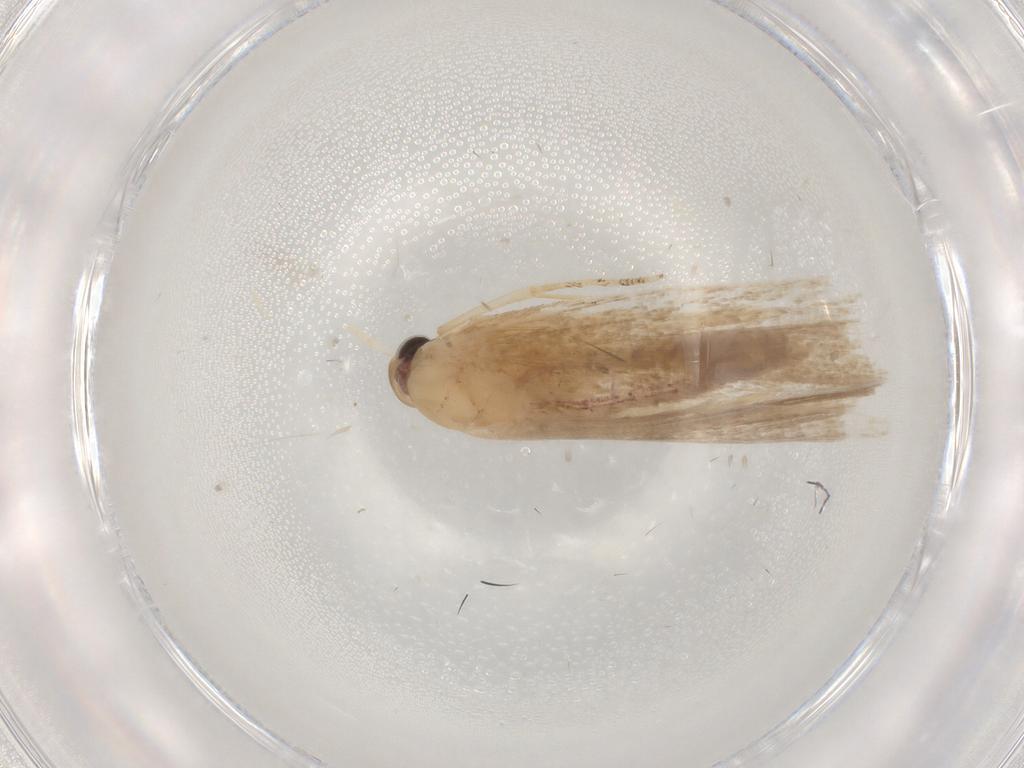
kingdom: Animalia
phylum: Arthropoda
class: Insecta
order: Lepidoptera
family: Gelechiidae
